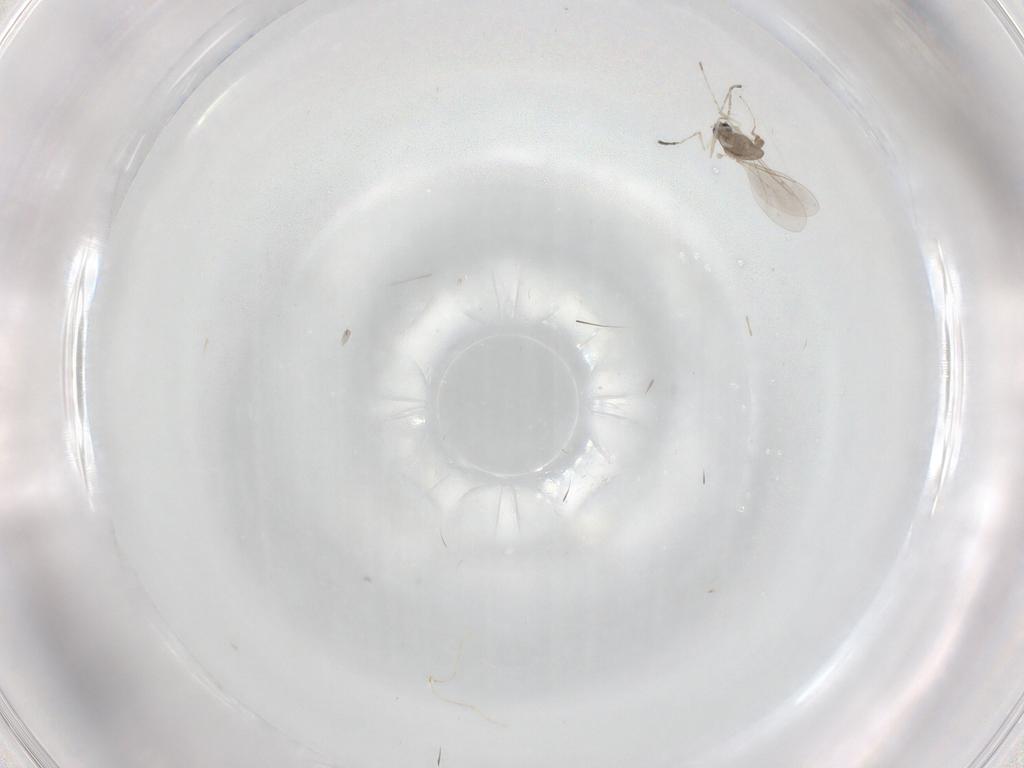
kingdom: Animalia
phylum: Arthropoda
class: Insecta
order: Diptera
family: Cecidomyiidae
